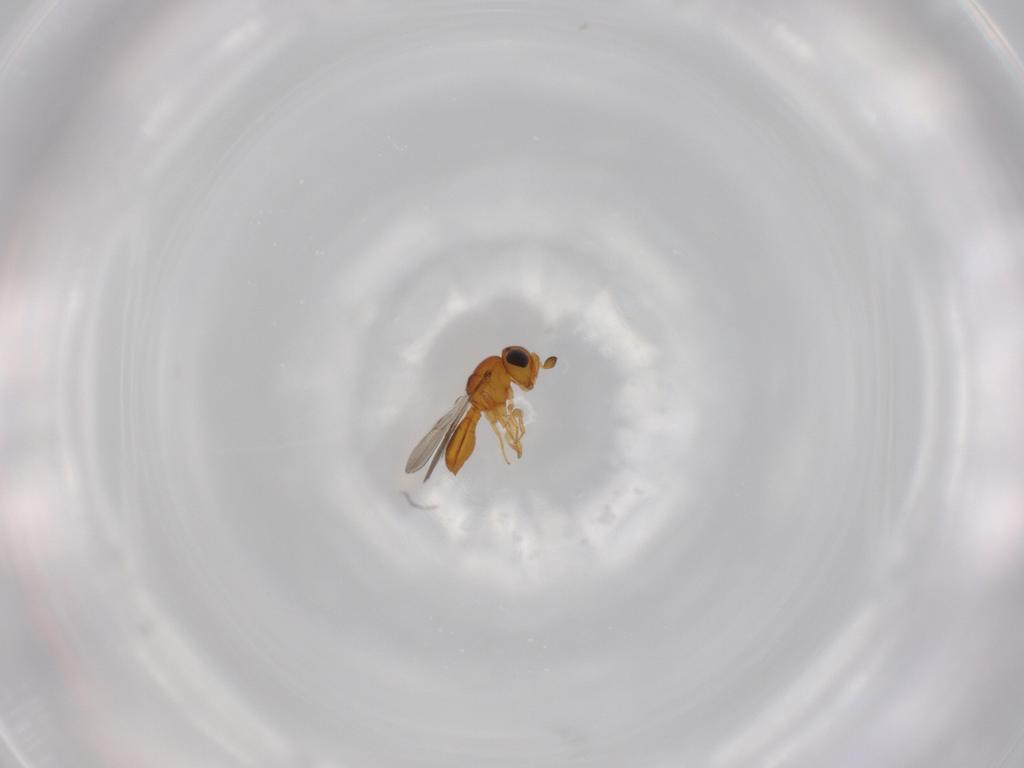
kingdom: Animalia
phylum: Arthropoda
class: Insecta
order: Hymenoptera
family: Scelionidae
